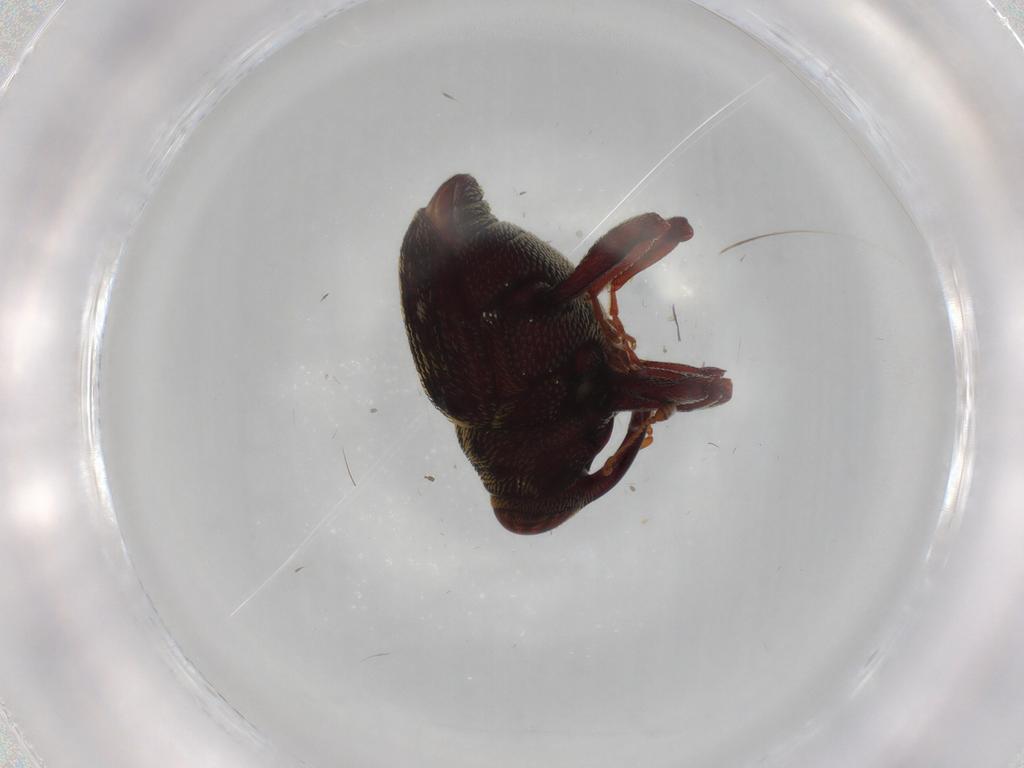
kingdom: Animalia
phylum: Arthropoda
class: Insecta
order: Coleoptera
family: Curculionidae
